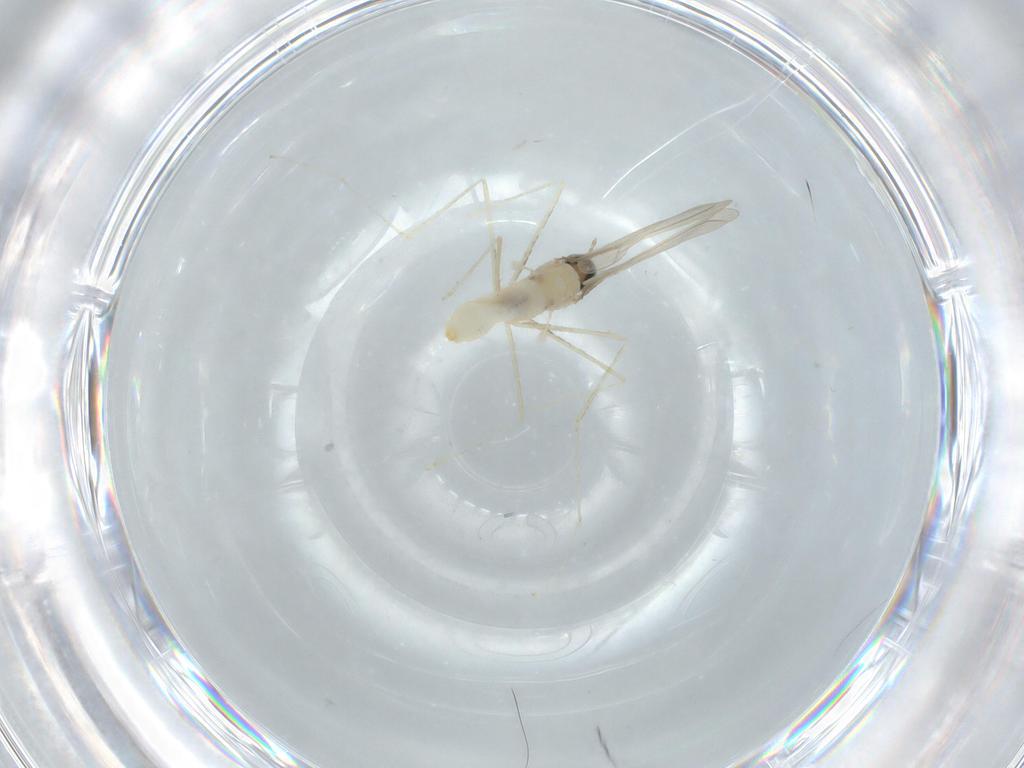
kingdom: Animalia
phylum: Arthropoda
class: Insecta
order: Diptera
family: Cecidomyiidae
